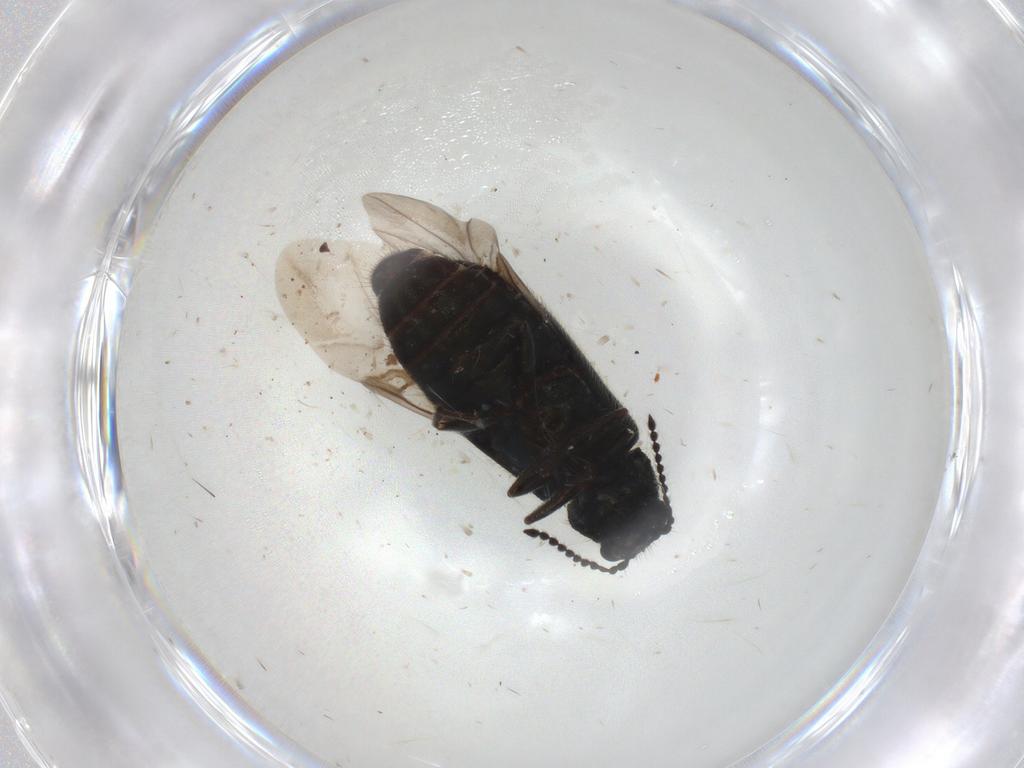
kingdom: Animalia
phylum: Arthropoda
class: Insecta
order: Coleoptera
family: Melyridae
